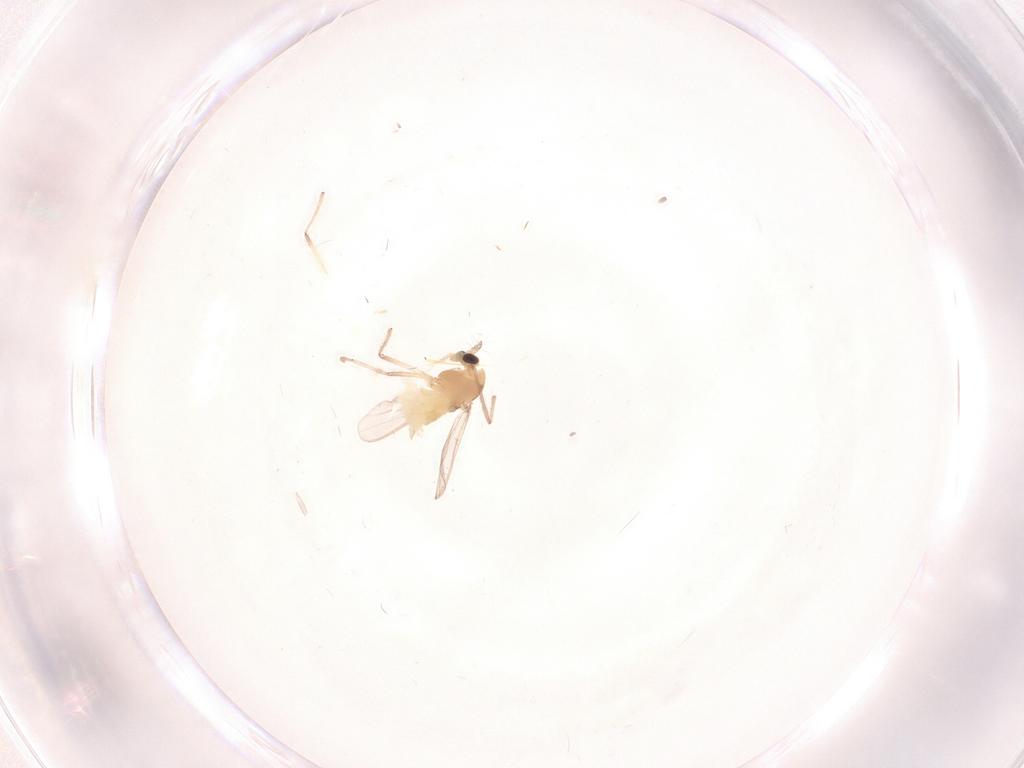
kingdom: Animalia
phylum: Arthropoda
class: Insecta
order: Diptera
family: Chironomidae
